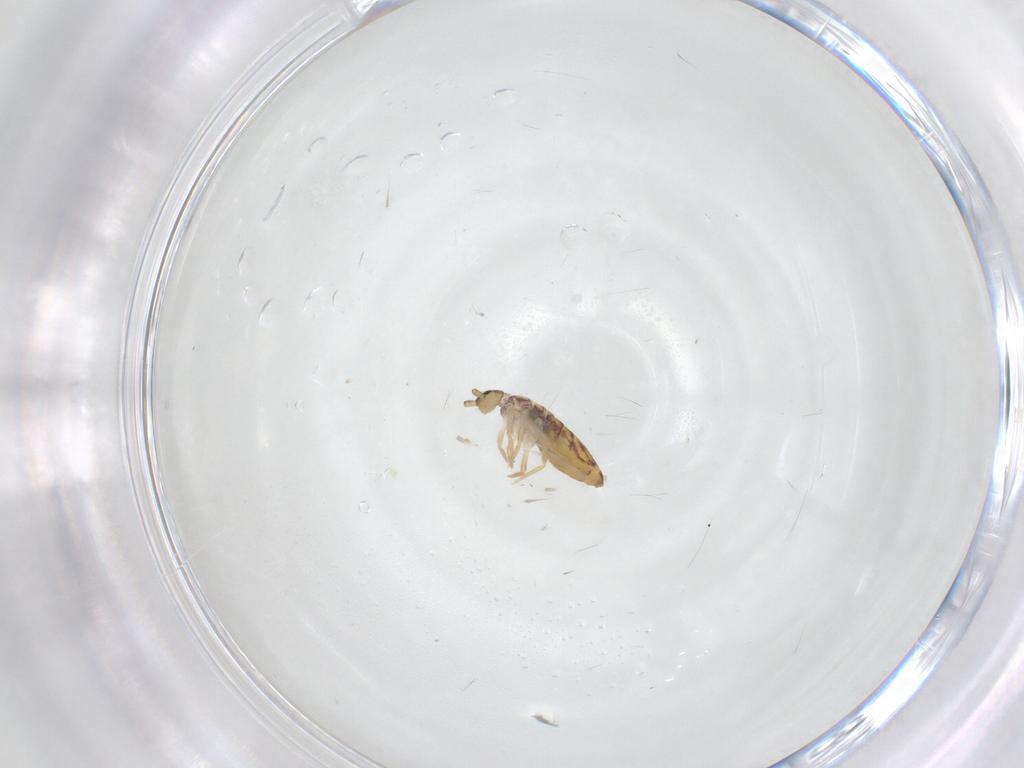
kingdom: Animalia
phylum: Arthropoda
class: Collembola
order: Entomobryomorpha
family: Entomobryidae
